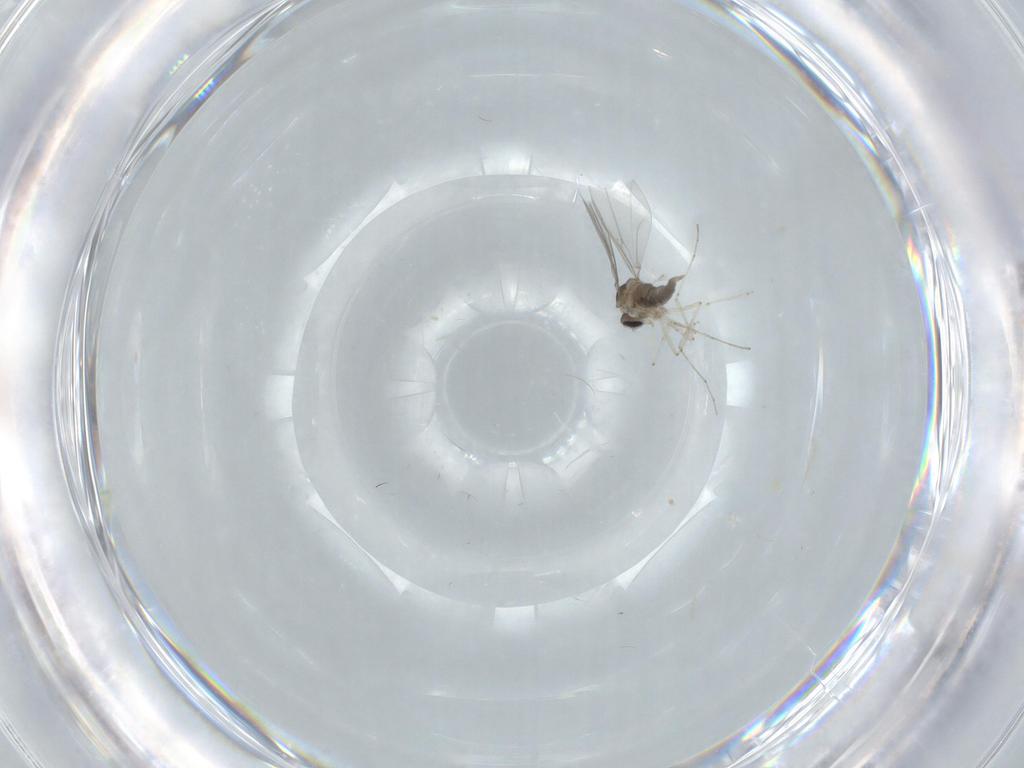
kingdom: Animalia
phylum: Arthropoda
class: Insecta
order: Diptera
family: Cecidomyiidae
